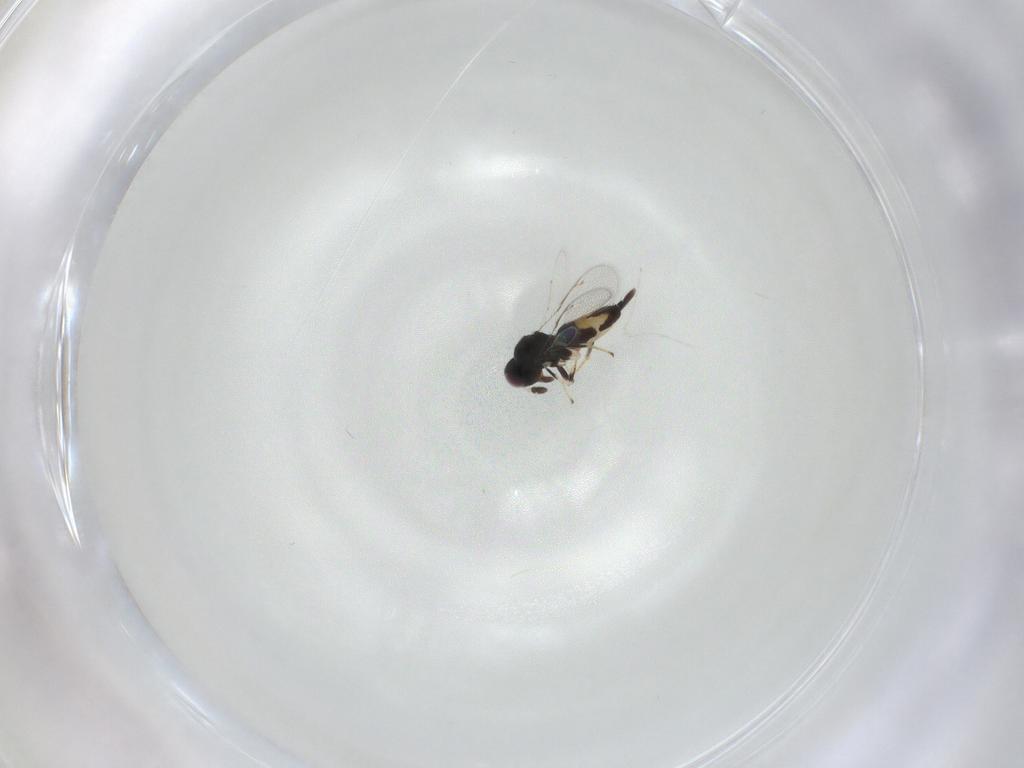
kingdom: Animalia
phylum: Arthropoda
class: Insecta
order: Hymenoptera
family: Pirenidae
